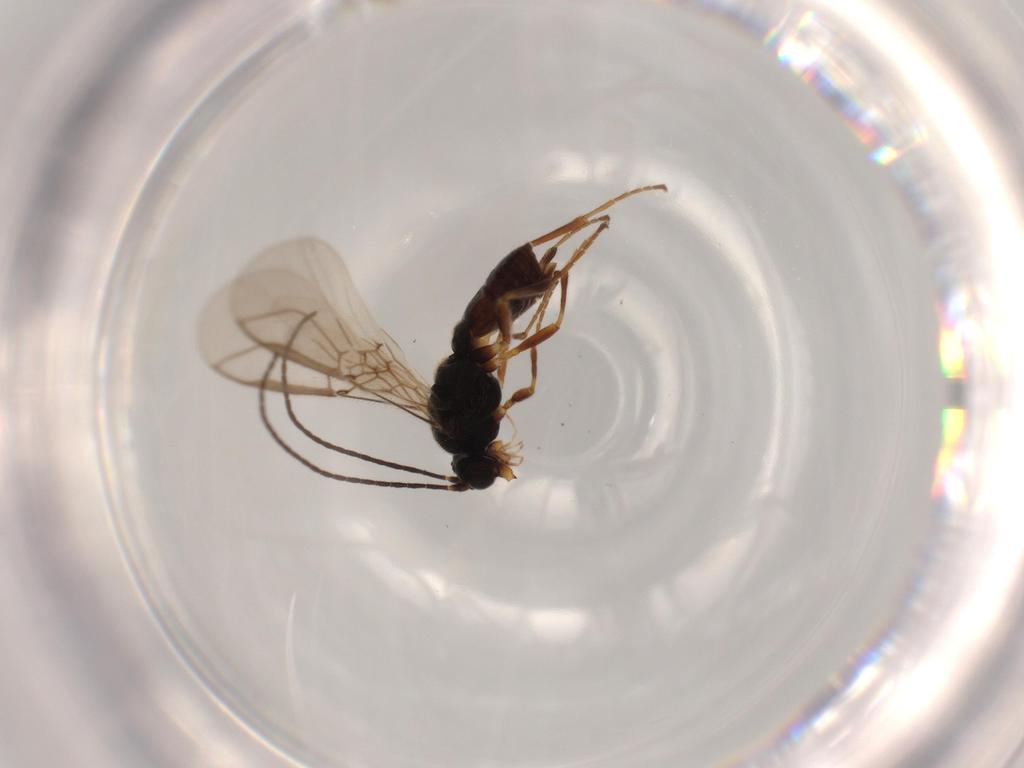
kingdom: Animalia
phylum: Arthropoda
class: Insecta
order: Hymenoptera
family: Braconidae
